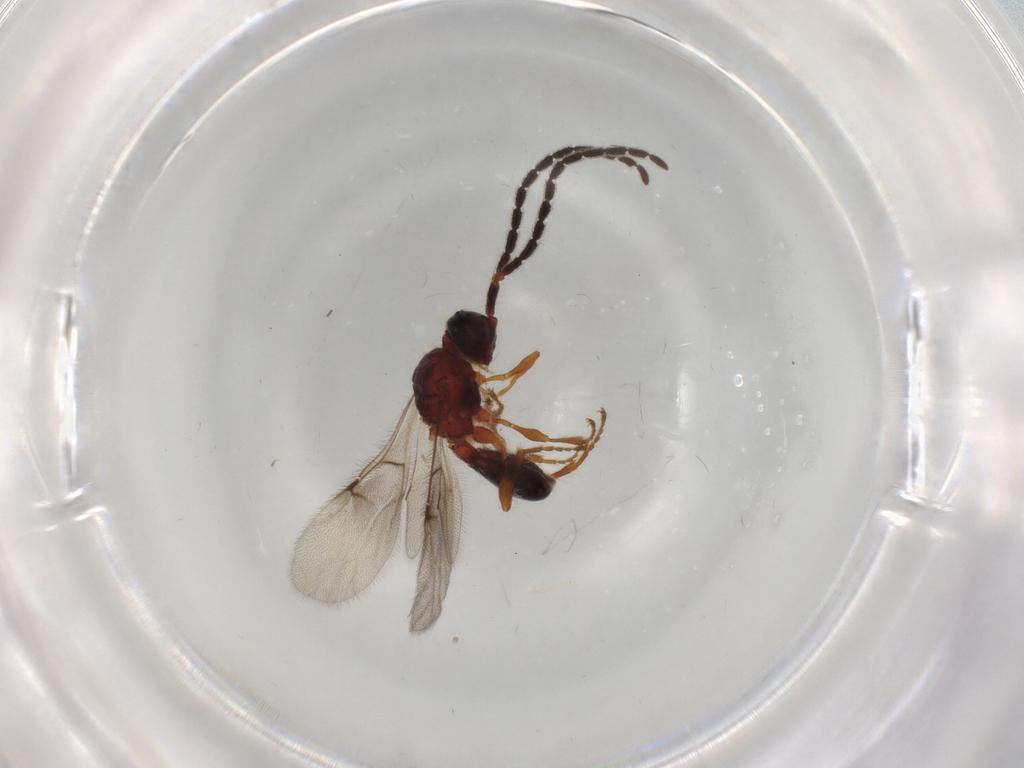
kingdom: Animalia
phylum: Arthropoda
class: Insecta
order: Hymenoptera
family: Diapriidae
